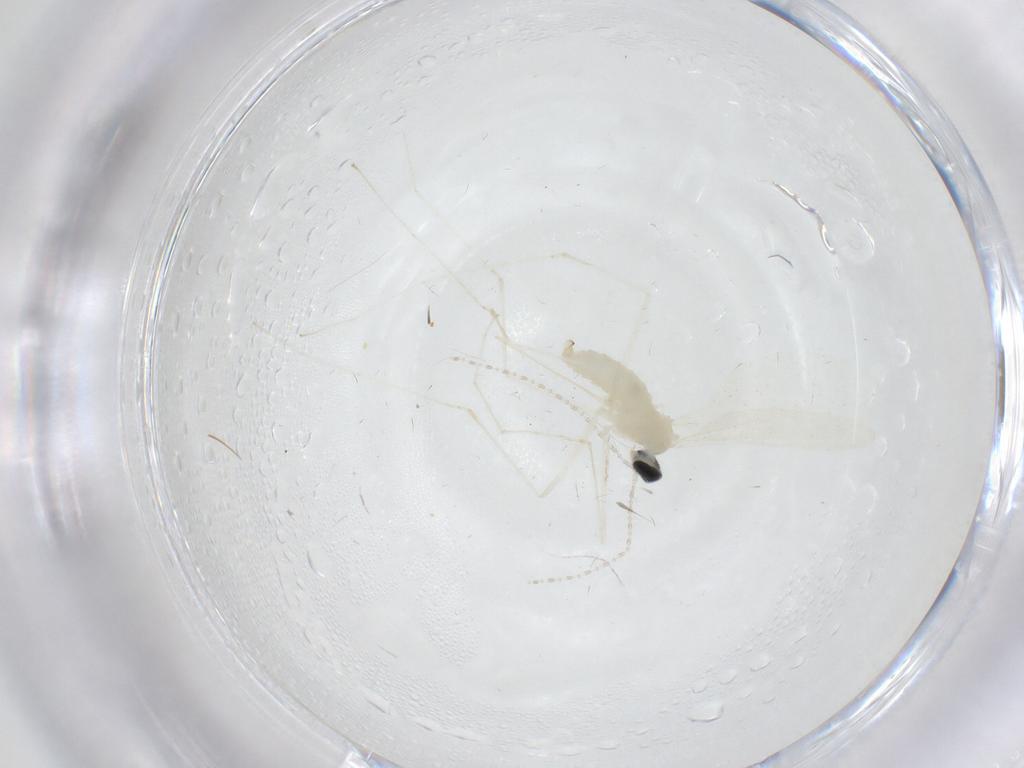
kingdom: Animalia
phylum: Arthropoda
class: Insecta
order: Diptera
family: Cecidomyiidae
